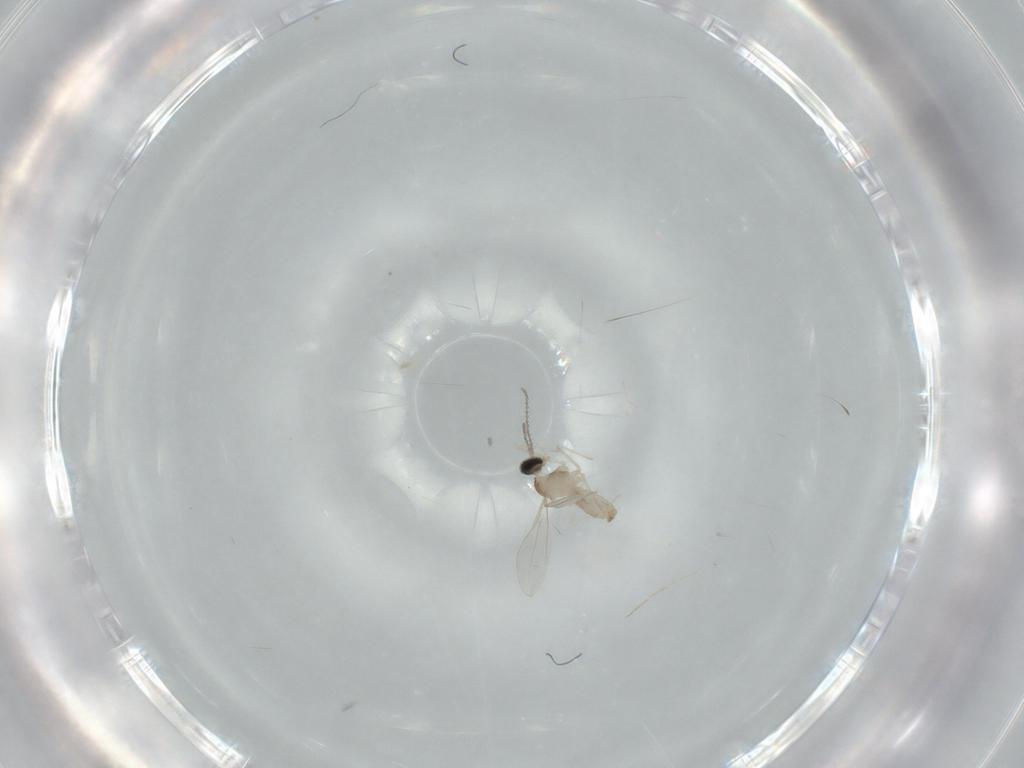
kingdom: Animalia
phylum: Arthropoda
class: Insecta
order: Diptera
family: Cecidomyiidae
